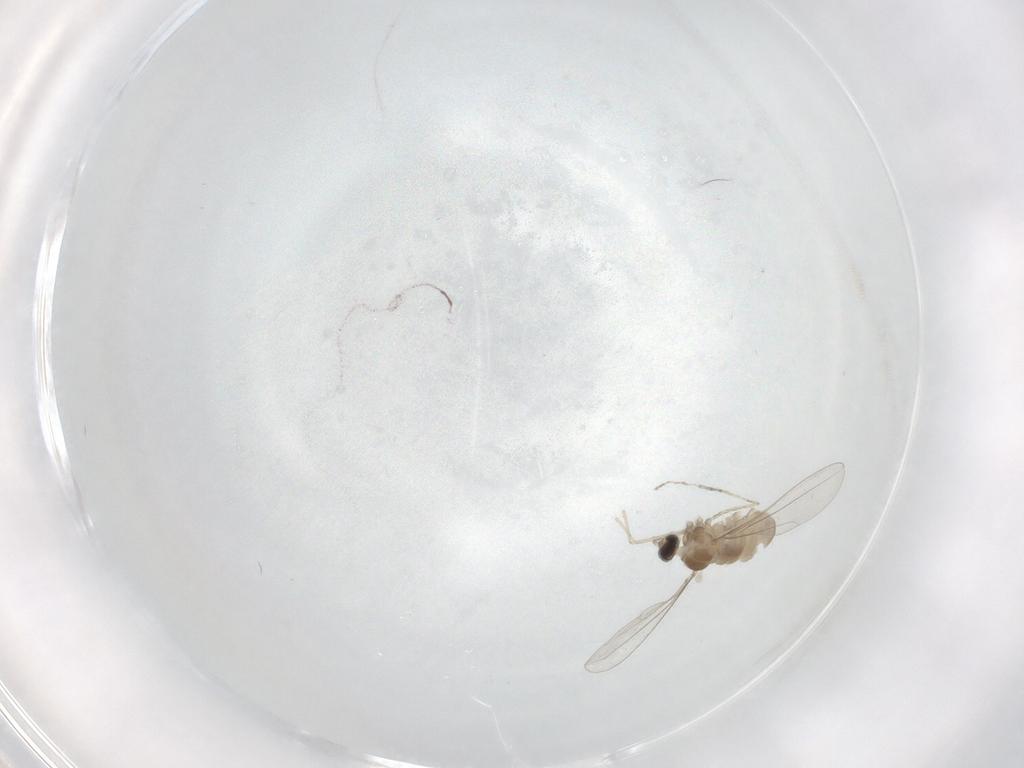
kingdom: Animalia
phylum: Arthropoda
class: Insecta
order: Diptera
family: Cecidomyiidae
